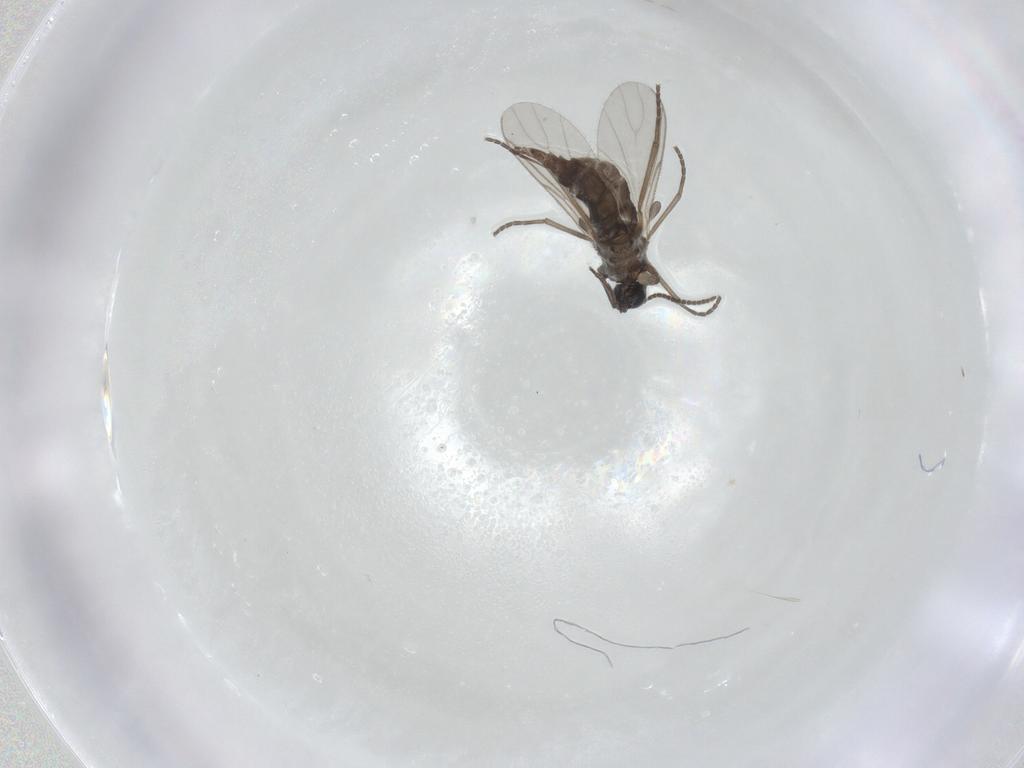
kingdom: Animalia
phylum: Arthropoda
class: Insecta
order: Diptera
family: Sciaridae
